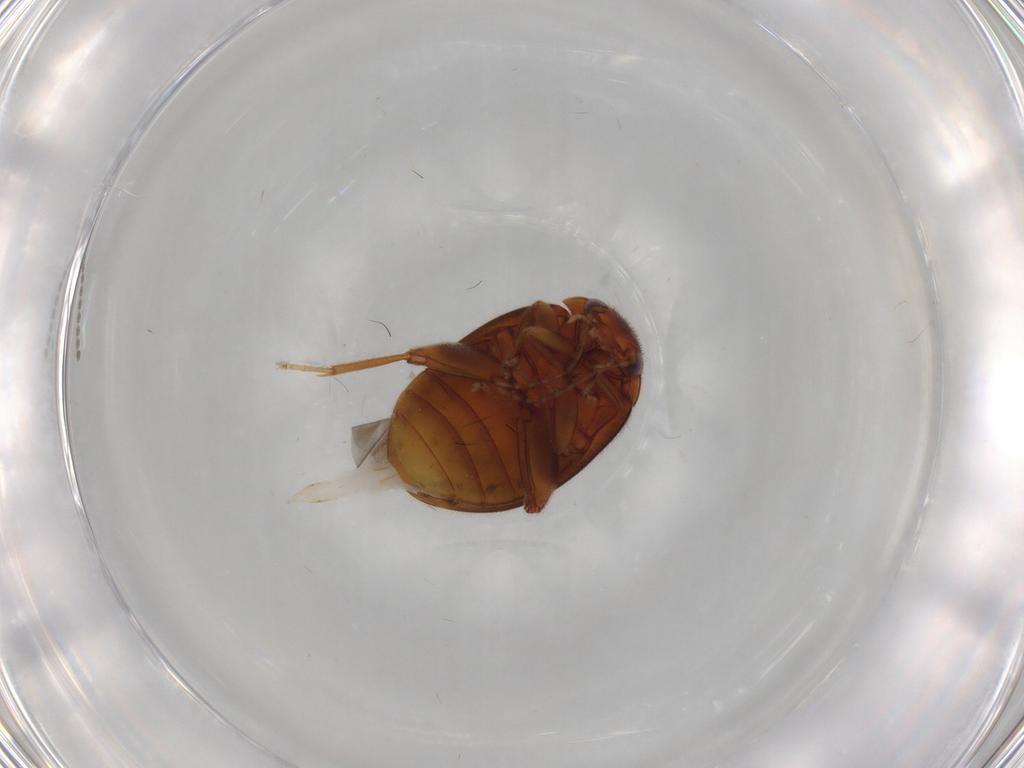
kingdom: Animalia
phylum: Arthropoda
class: Insecta
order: Coleoptera
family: Scirtidae
